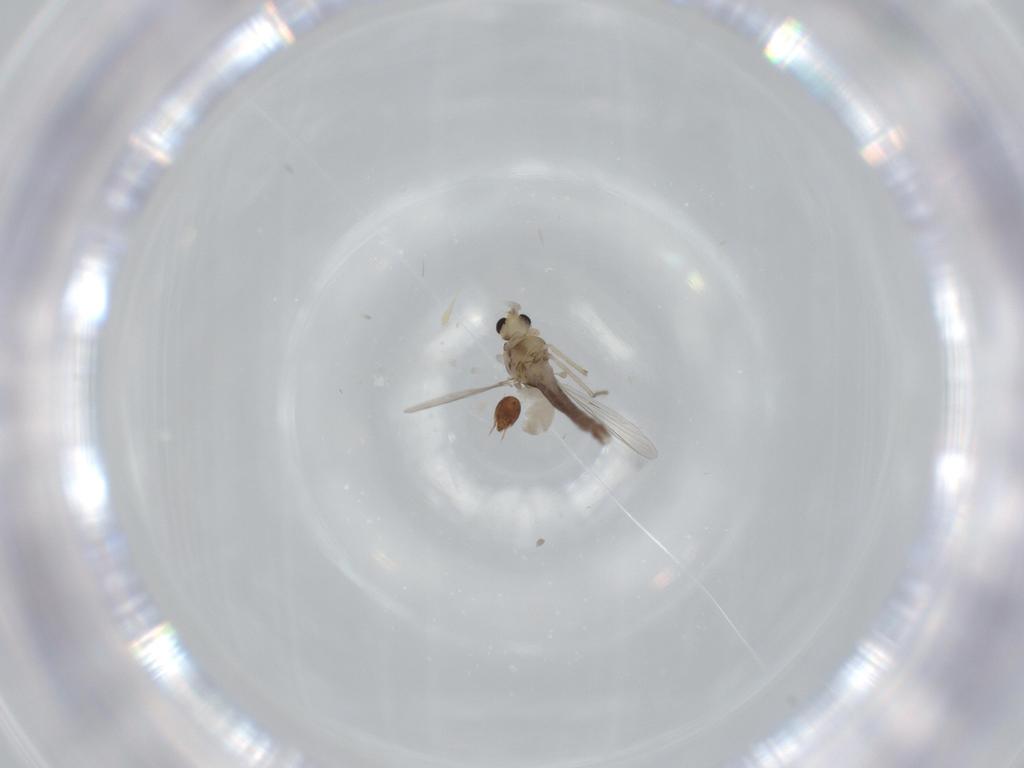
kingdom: Animalia
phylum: Arthropoda
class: Insecta
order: Diptera
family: Chironomidae
